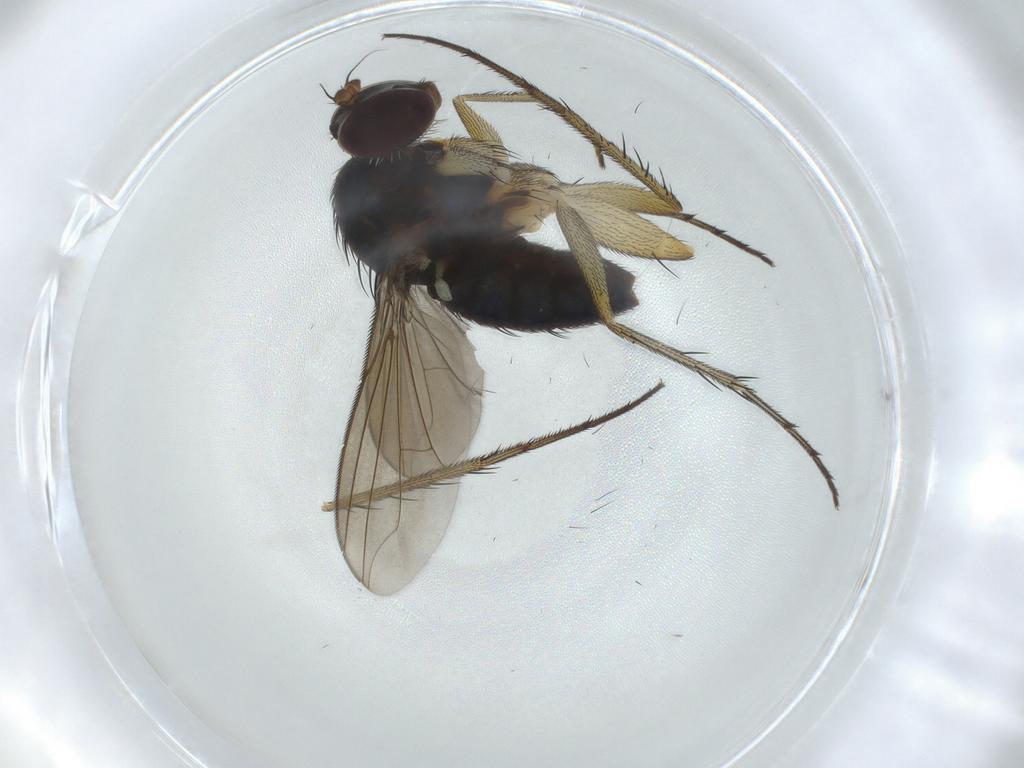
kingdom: Animalia
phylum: Arthropoda
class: Insecta
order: Diptera
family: Dolichopodidae
